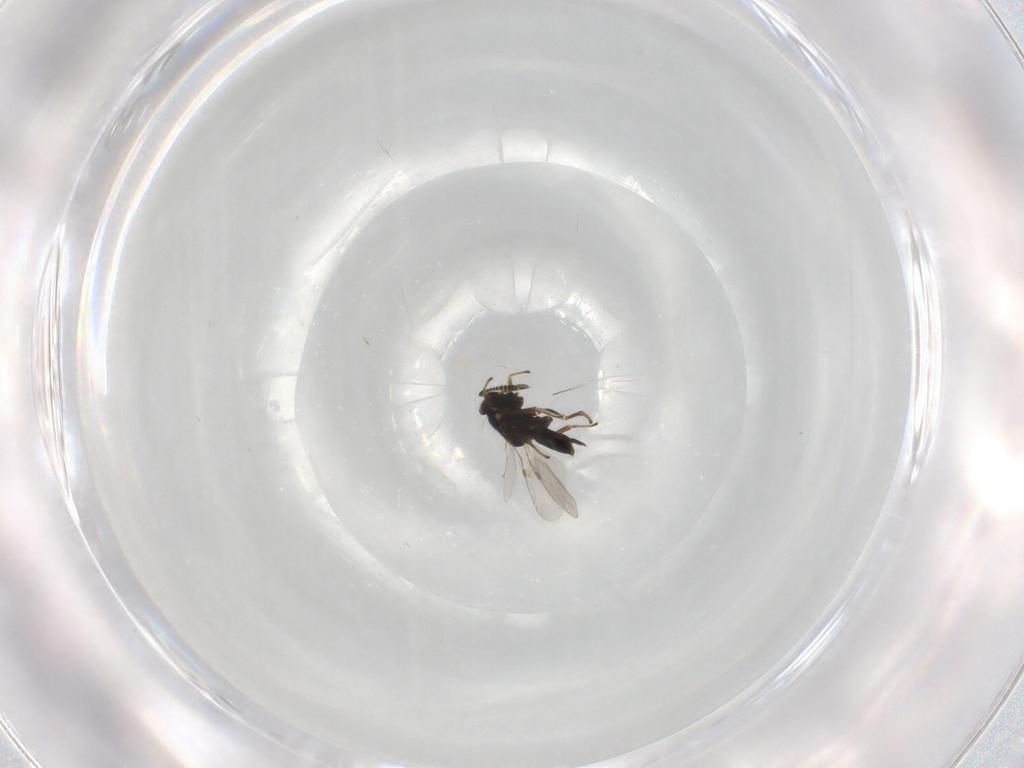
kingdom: Animalia
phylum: Arthropoda
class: Insecta
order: Hymenoptera
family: Encyrtidae
